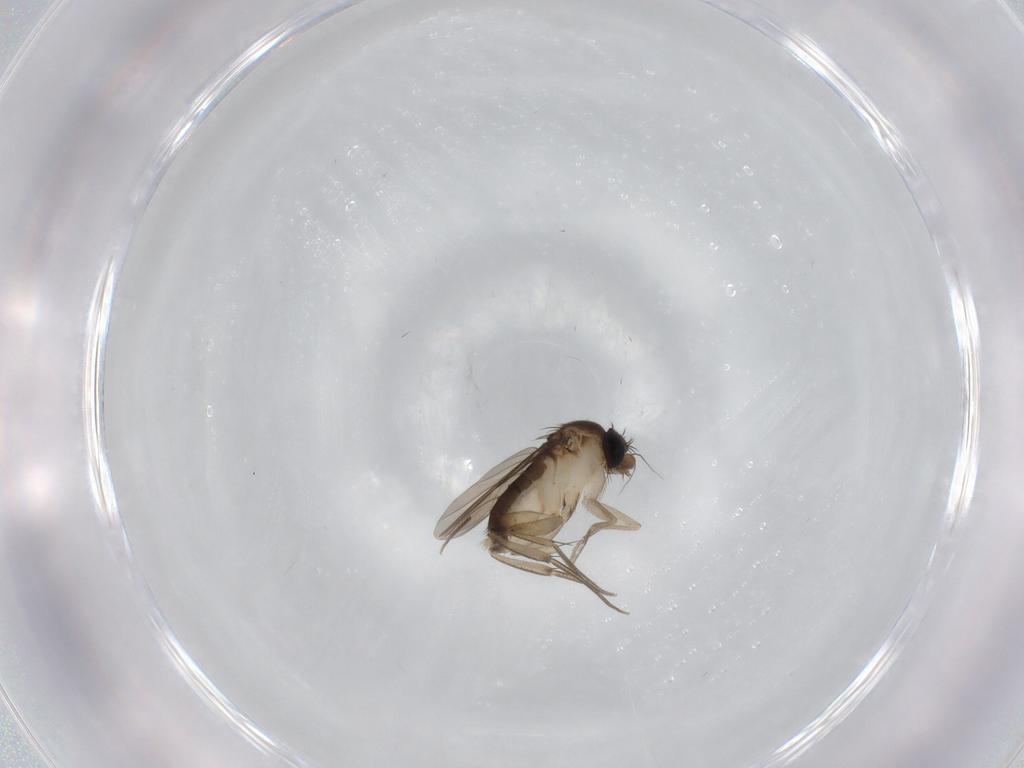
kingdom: Animalia
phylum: Arthropoda
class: Insecta
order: Diptera
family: Phoridae
